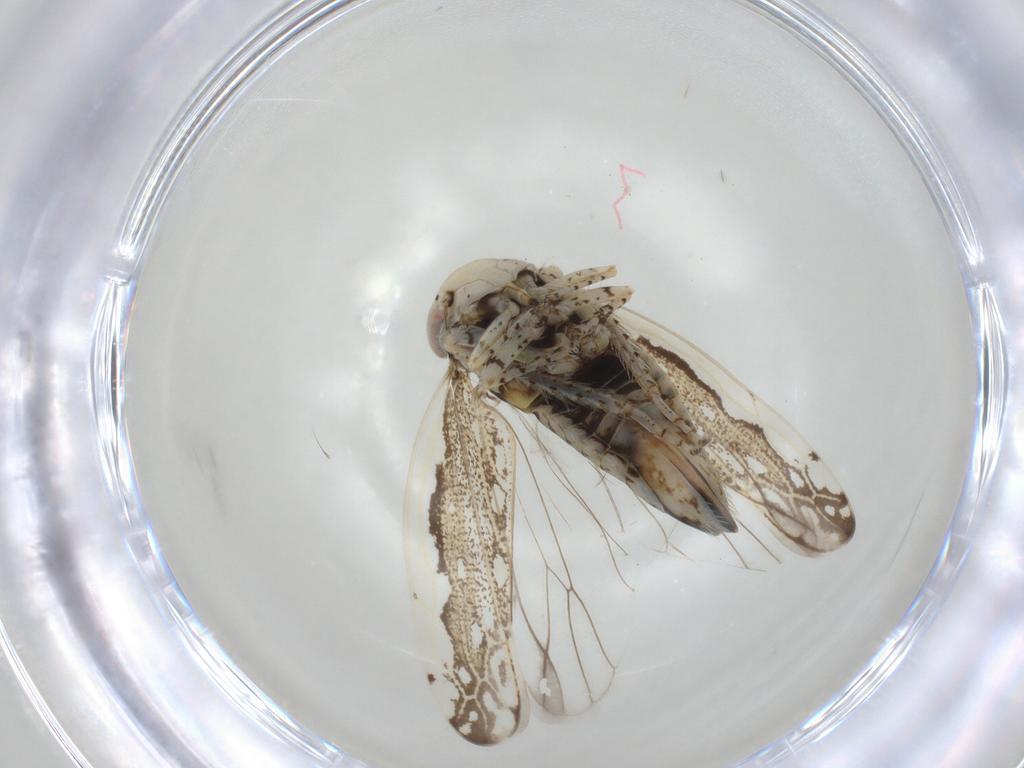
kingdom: Animalia
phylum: Arthropoda
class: Insecta
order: Hemiptera
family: Cicadellidae
